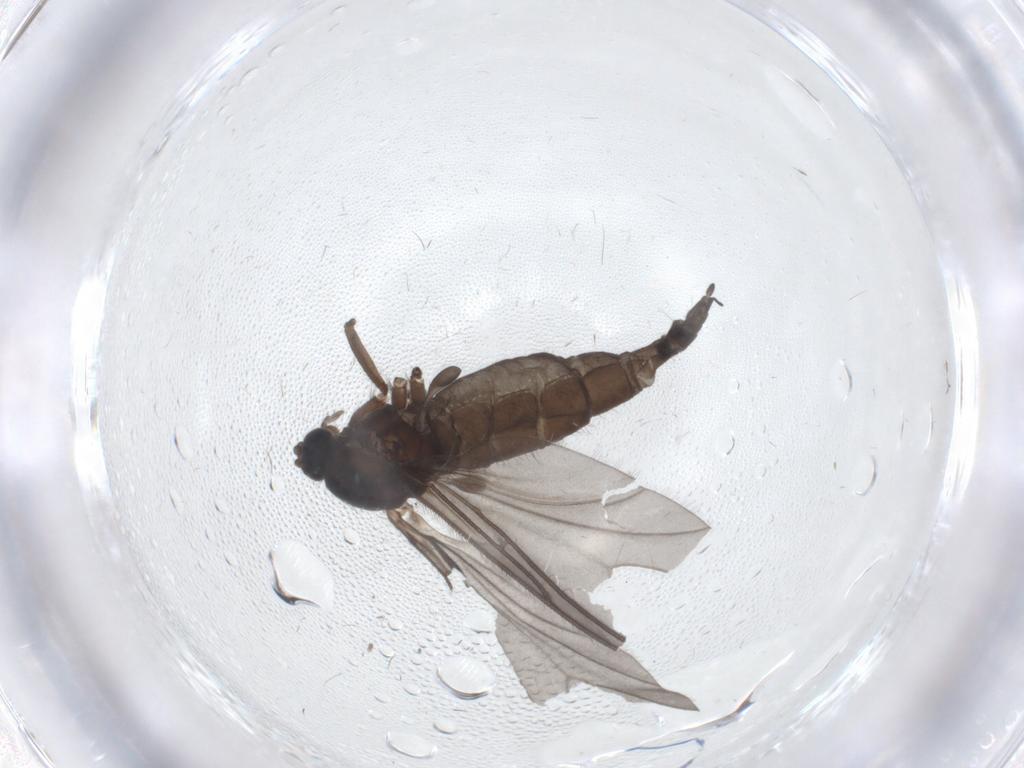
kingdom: Animalia
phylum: Arthropoda
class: Insecta
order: Diptera
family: Sciaridae
